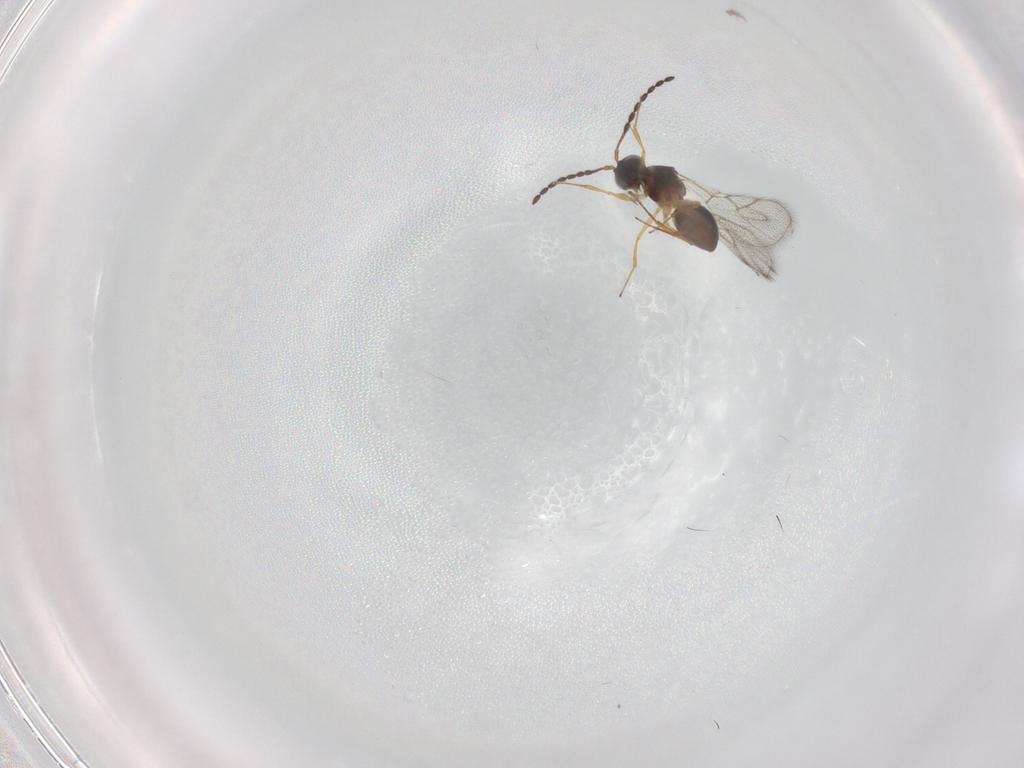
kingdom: Animalia
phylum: Arthropoda
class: Insecta
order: Hymenoptera
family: Figitidae
